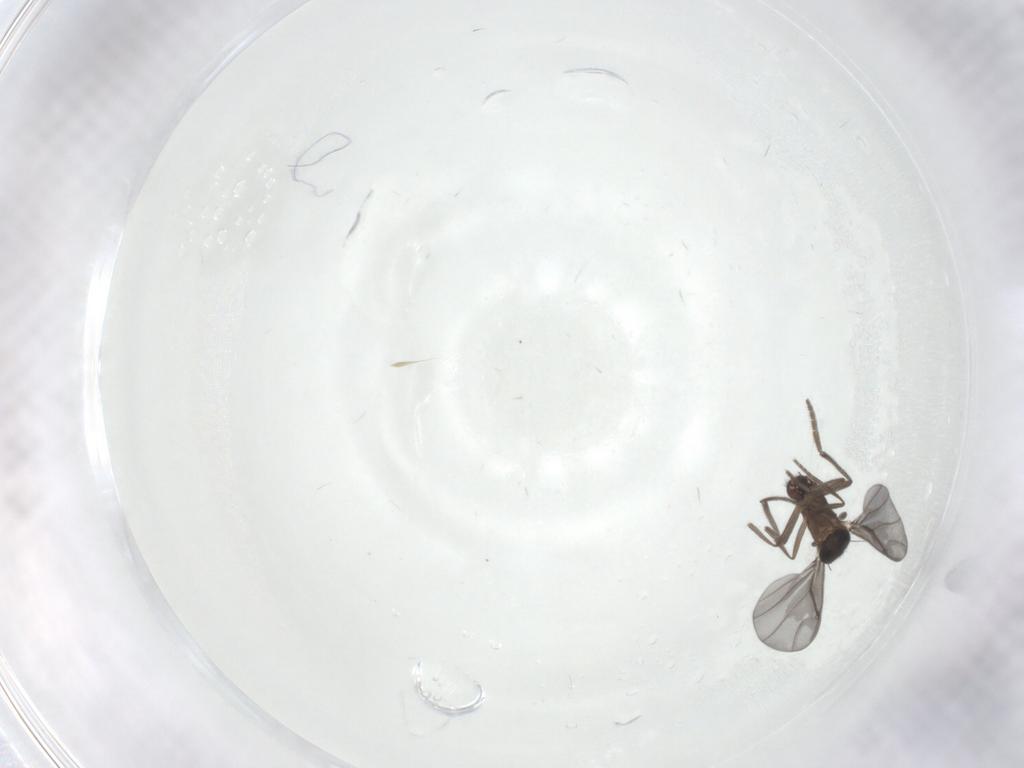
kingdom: Animalia
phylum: Arthropoda
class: Insecta
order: Diptera
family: Phoridae
